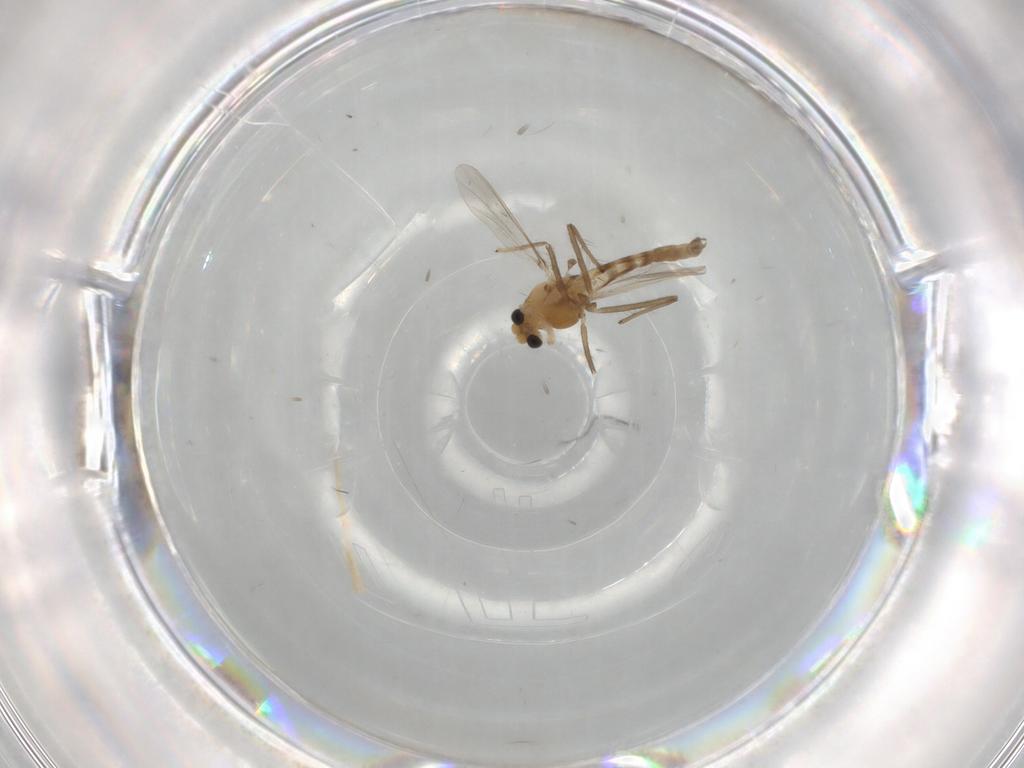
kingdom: Animalia
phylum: Arthropoda
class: Insecta
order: Diptera
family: Chironomidae
